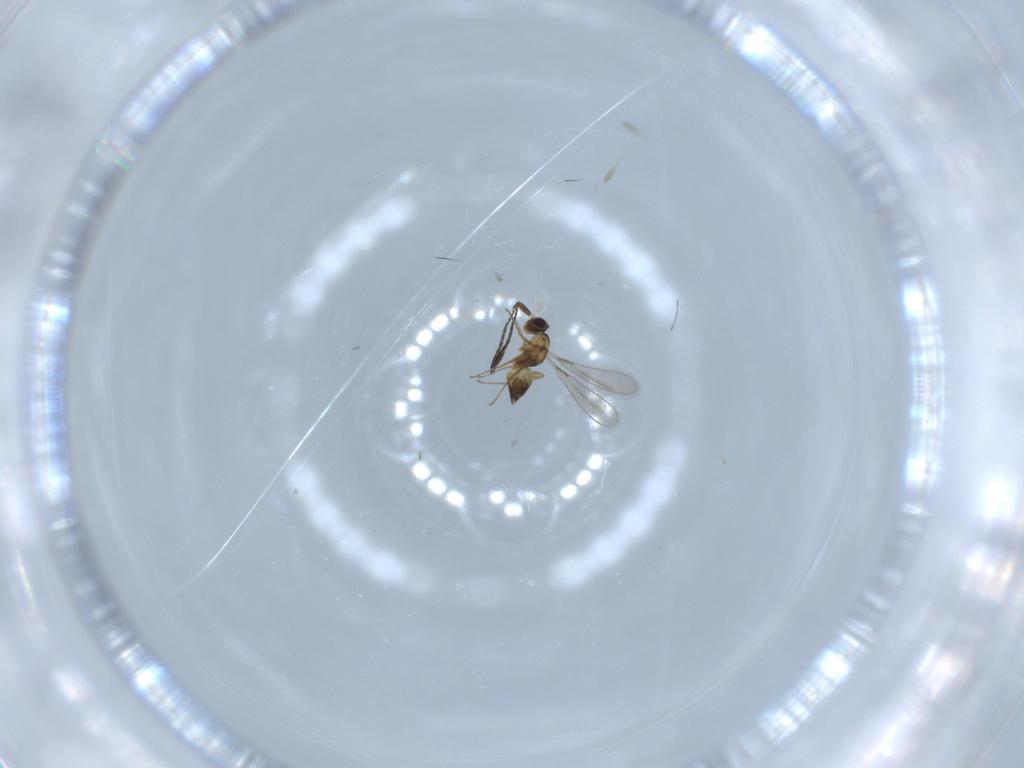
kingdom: Animalia
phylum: Arthropoda
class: Insecta
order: Hymenoptera
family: Mymaridae
